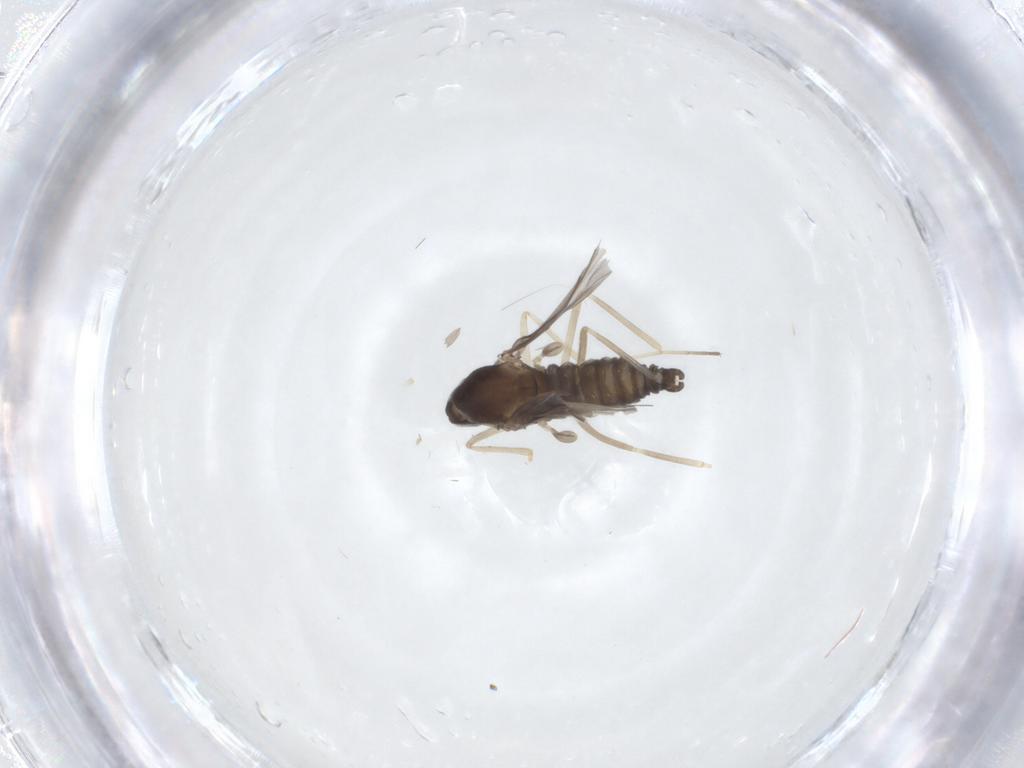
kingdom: Animalia
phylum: Arthropoda
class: Insecta
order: Diptera
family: Cecidomyiidae
